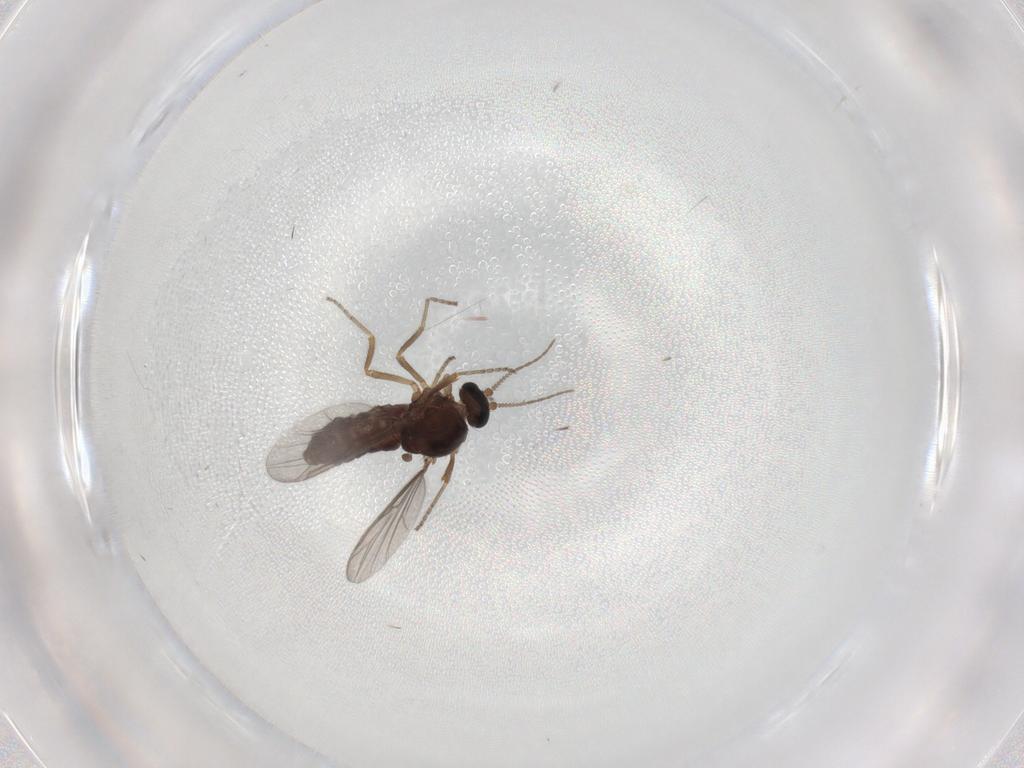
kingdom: Animalia
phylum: Arthropoda
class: Insecta
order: Diptera
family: Ceratopogonidae
